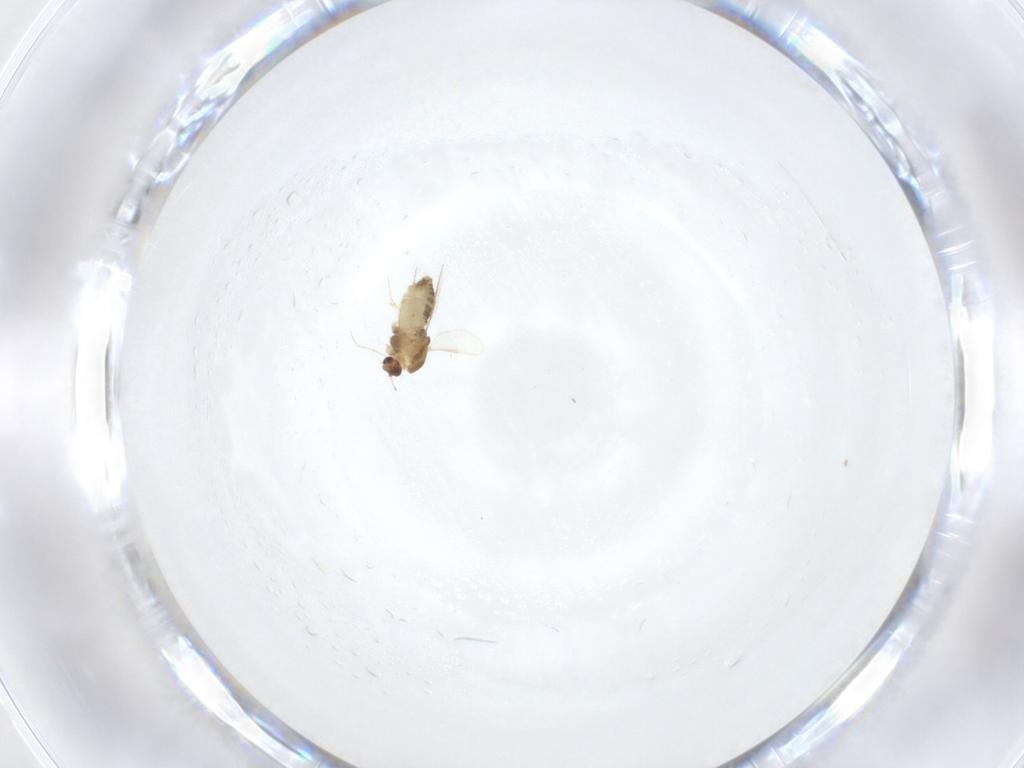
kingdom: Animalia
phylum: Arthropoda
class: Insecta
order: Diptera
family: Chironomidae
